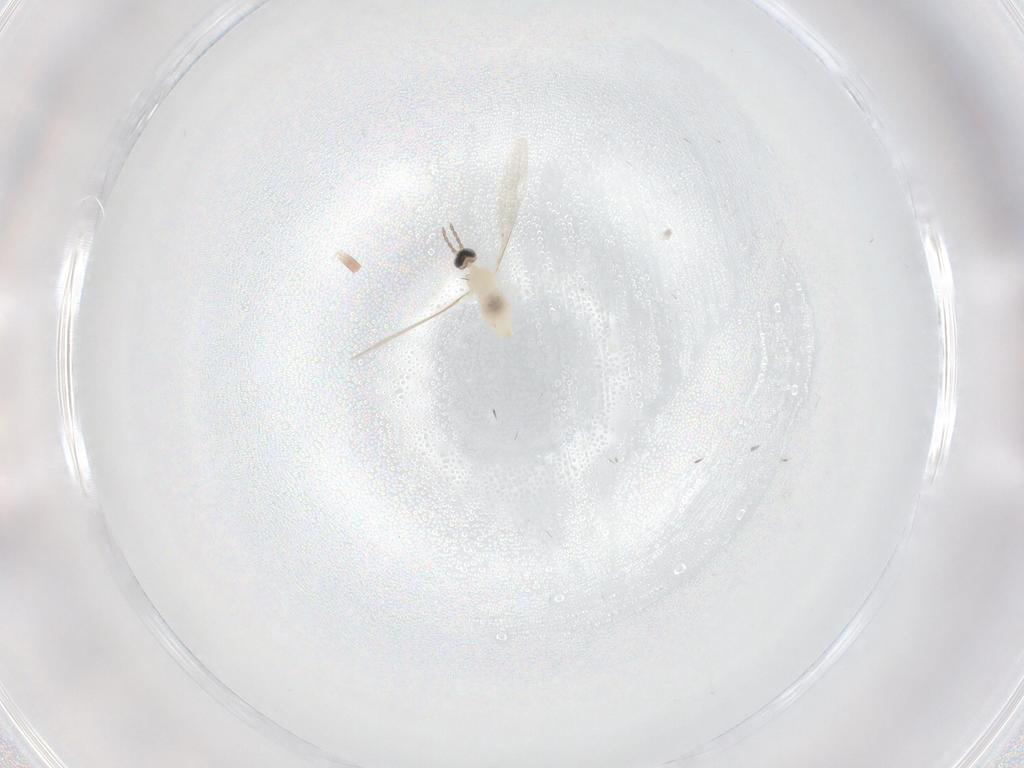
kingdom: Animalia
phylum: Arthropoda
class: Insecta
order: Diptera
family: Cecidomyiidae
